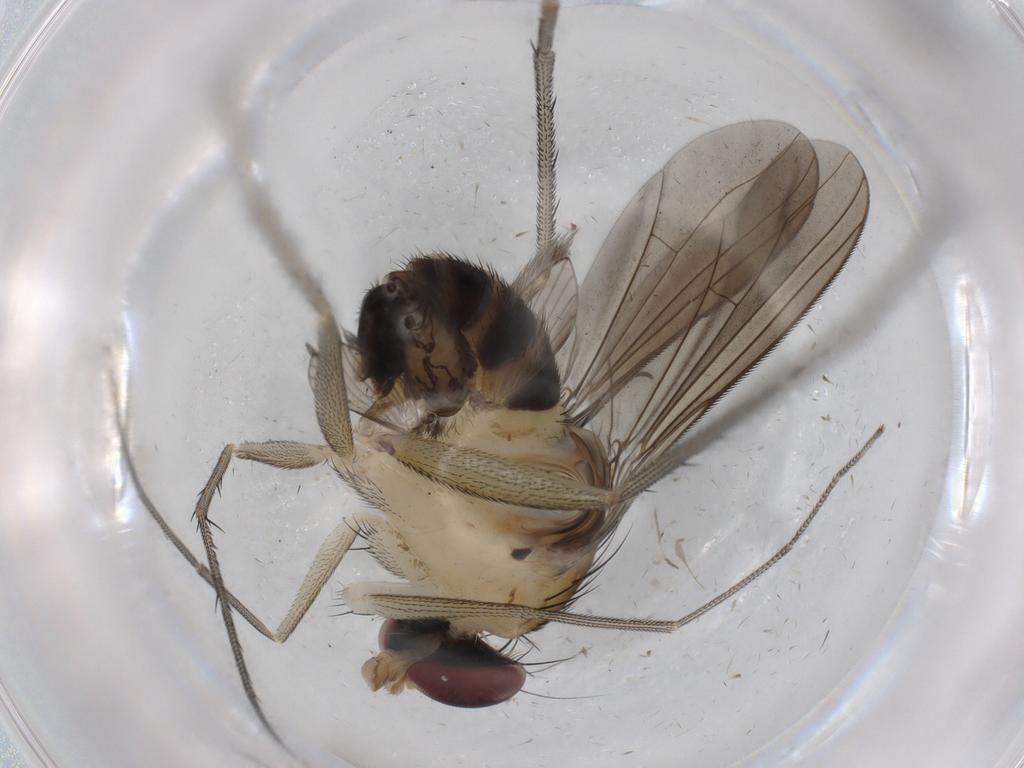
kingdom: Animalia
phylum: Arthropoda
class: Insecta
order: Diptera
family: Dolichopodidae
